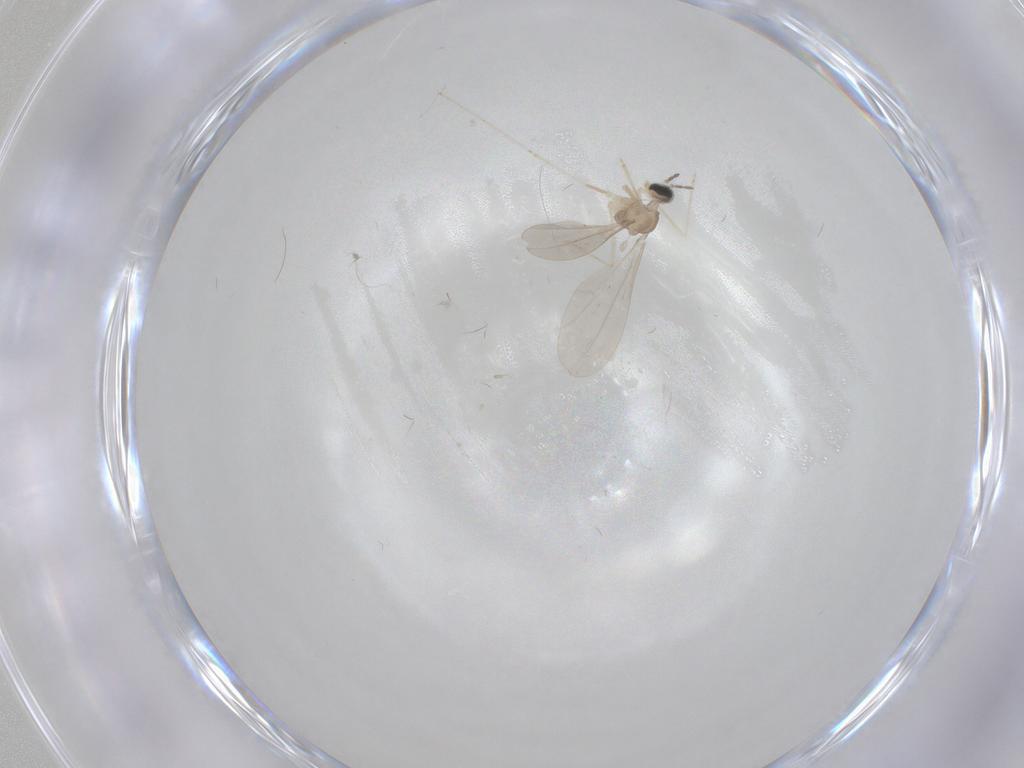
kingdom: Animalia
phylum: Arthropoda
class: Insecta
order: Diptera
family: Cecidomyiidae
